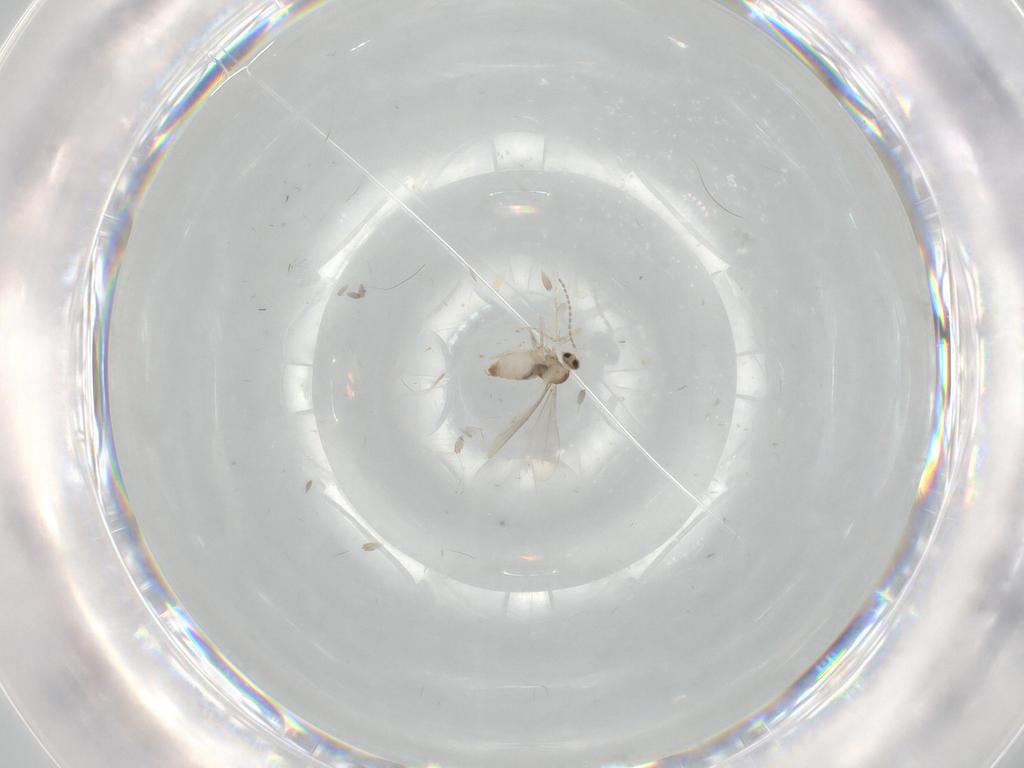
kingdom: Animalia
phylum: Arthropoda
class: Insecta
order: Diptera
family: Cecidomyiidae
